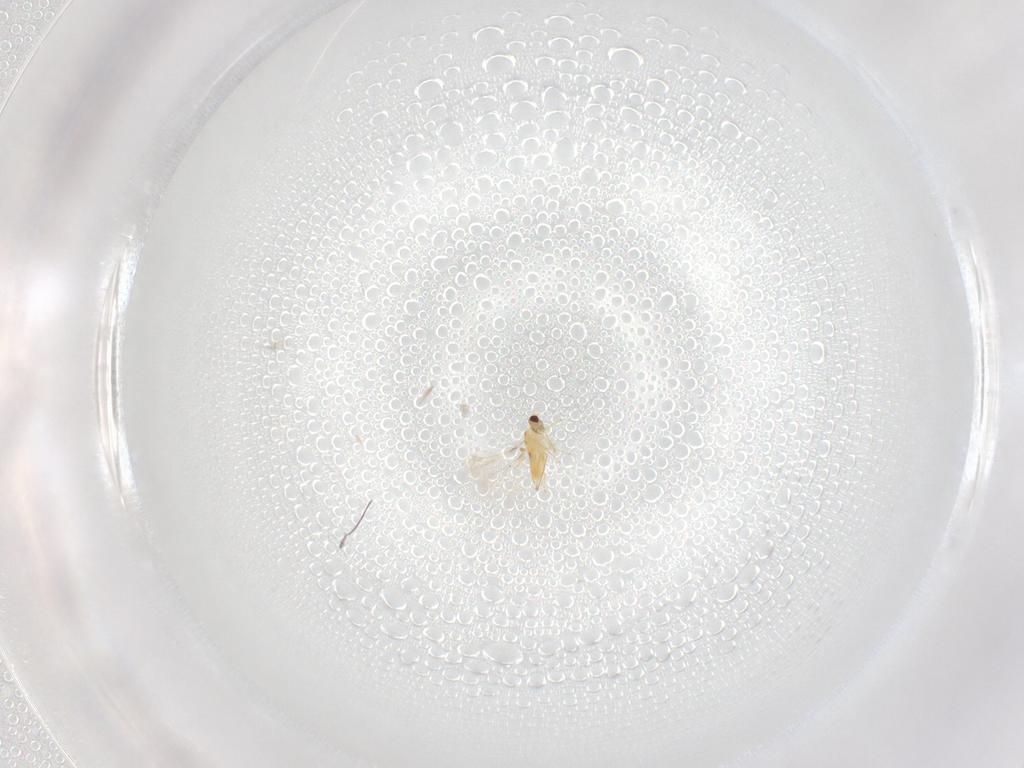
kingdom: Animalia
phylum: Arthropoda
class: Insecta
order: Hymenoptera
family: Mymaridae
